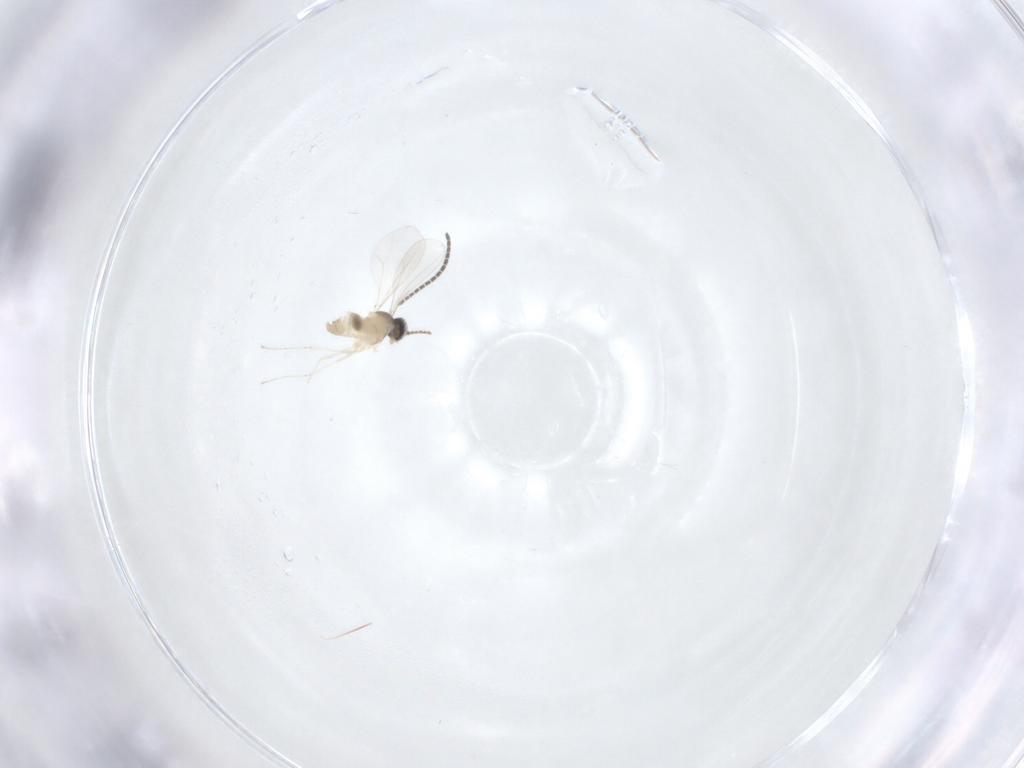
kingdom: Animalia
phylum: Arthropoda
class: Insecta
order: Diptera
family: Cecidomyiidae
